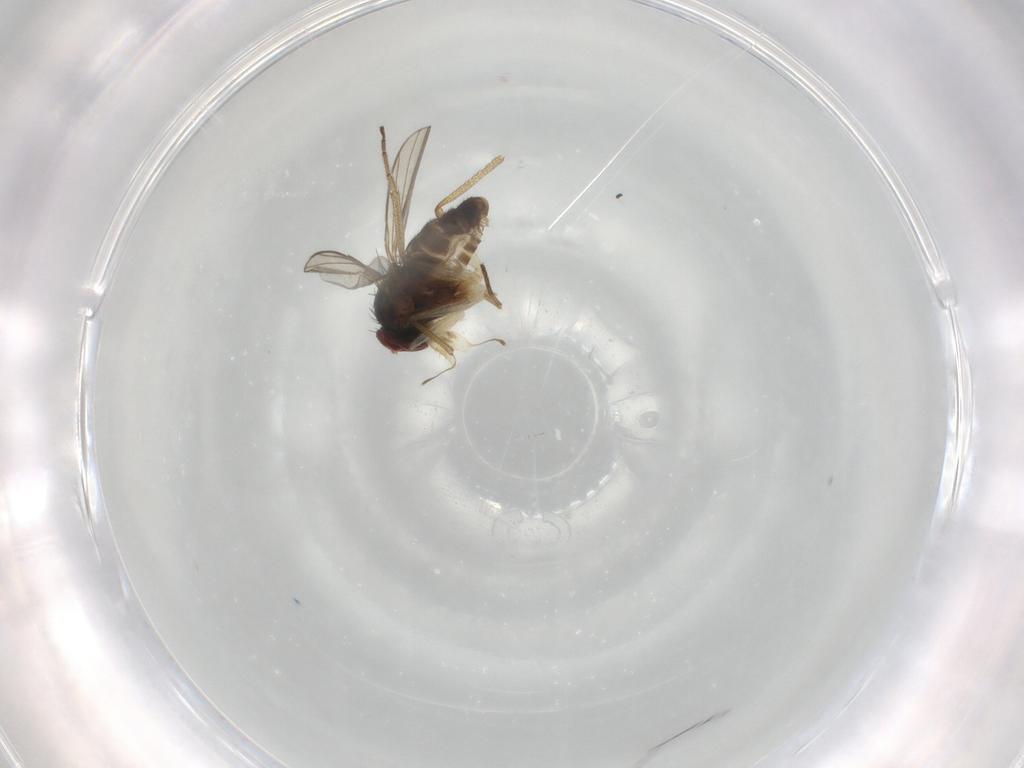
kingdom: Animalia
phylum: Arthropoda
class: Insecta
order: Diptera
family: Dolichopodidae
